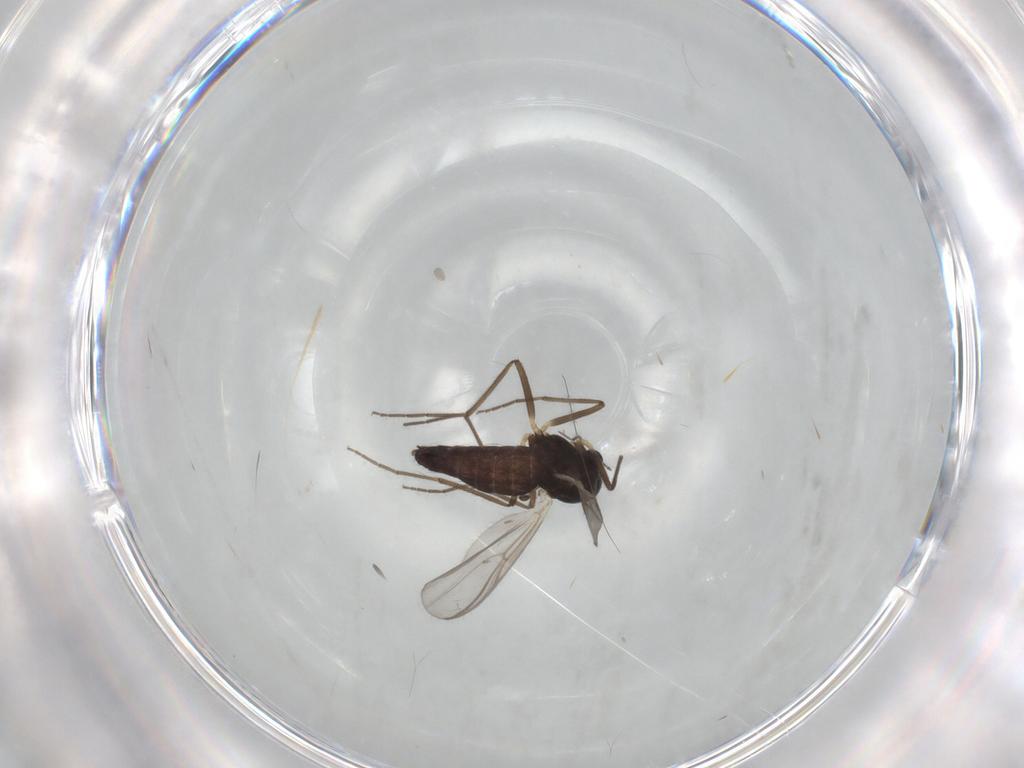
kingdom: Animalia
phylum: Arthropoda
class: Insecta
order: Diptera
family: Chironomidae
